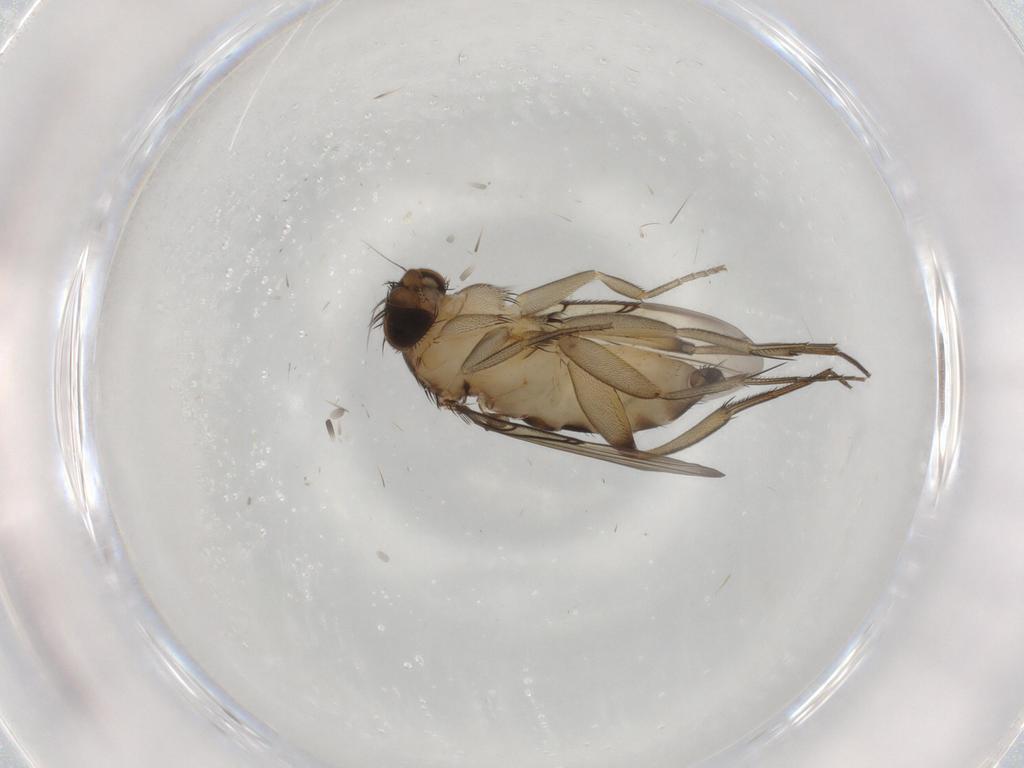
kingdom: Animalia
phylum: Arthropoda
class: Insecta
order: Diptera
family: Phoridae
